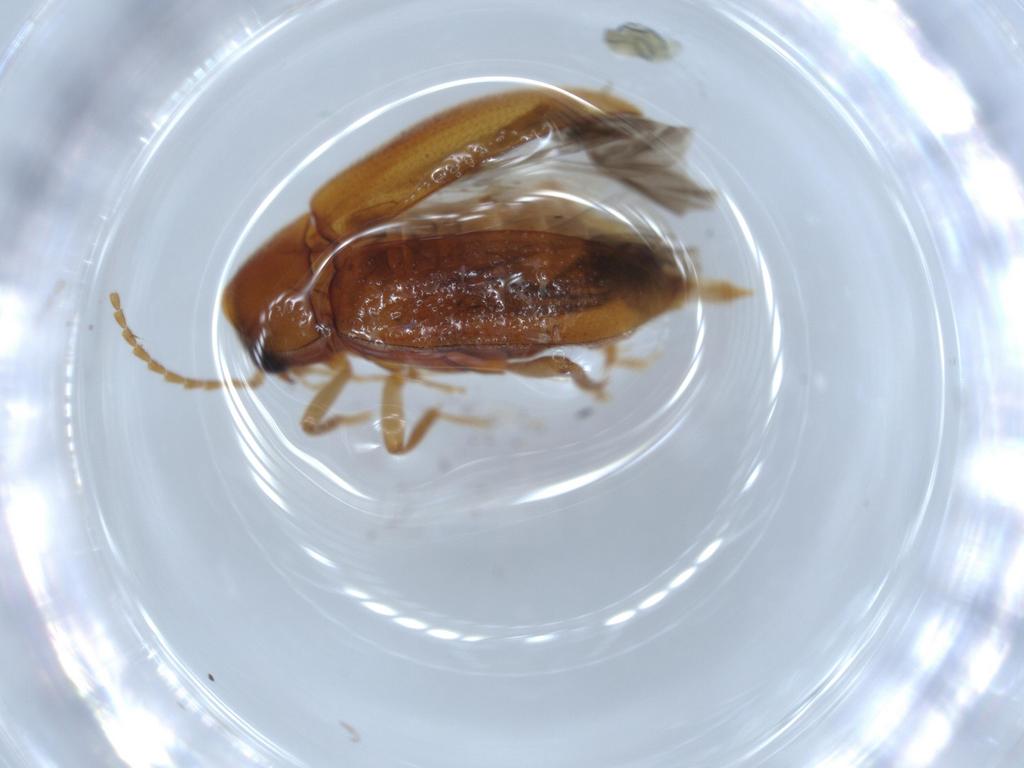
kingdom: Animalia
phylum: Arthropoda
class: Insecta
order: Coleoptera
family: Ptilodactylidae
